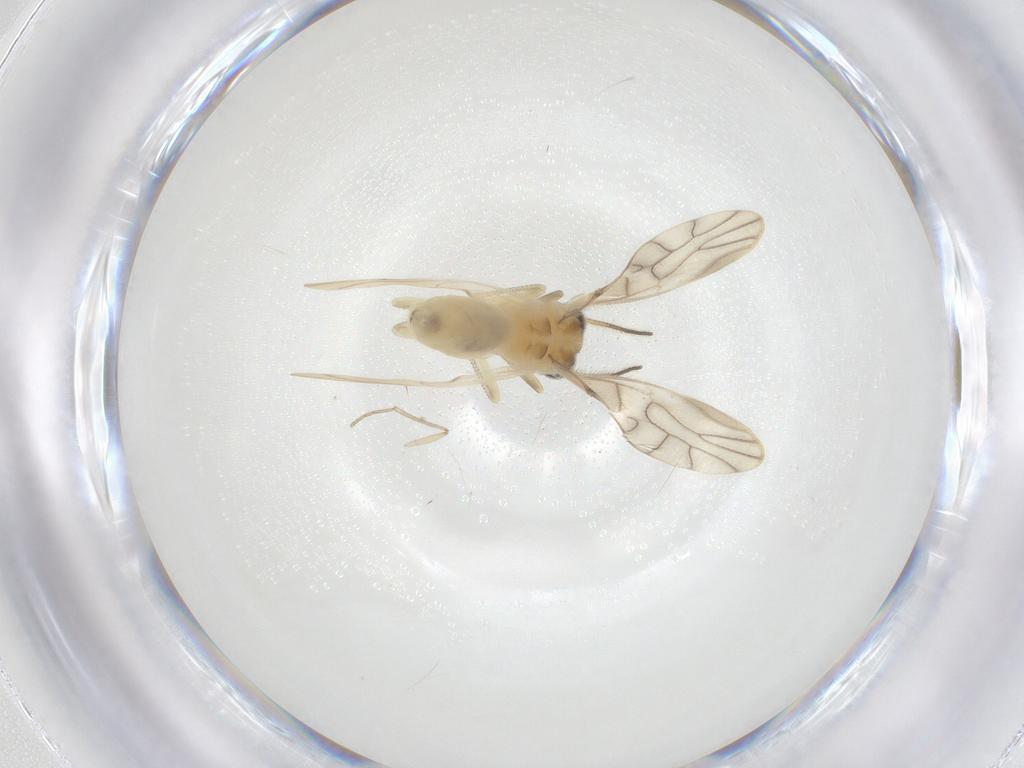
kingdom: Animalia
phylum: Arthropoda
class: Insecta
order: Psocodea
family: Caeciliusidae
